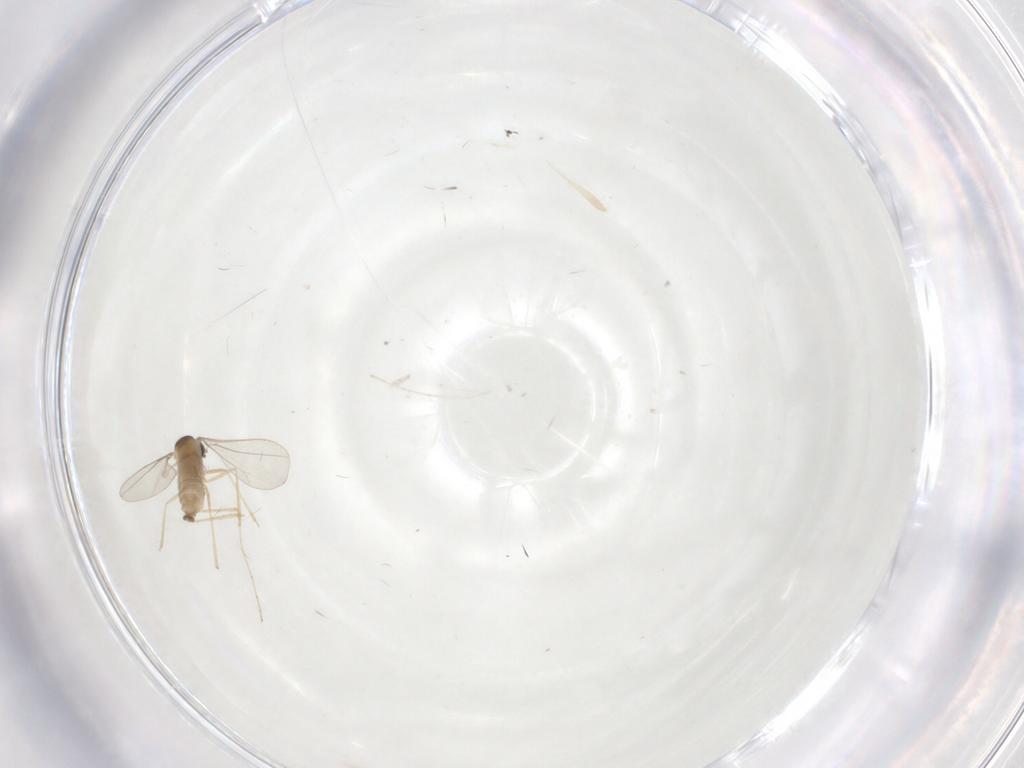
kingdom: Animalia
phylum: Arthropoda
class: Insecta
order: Diptera
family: Cecidomyiidae
